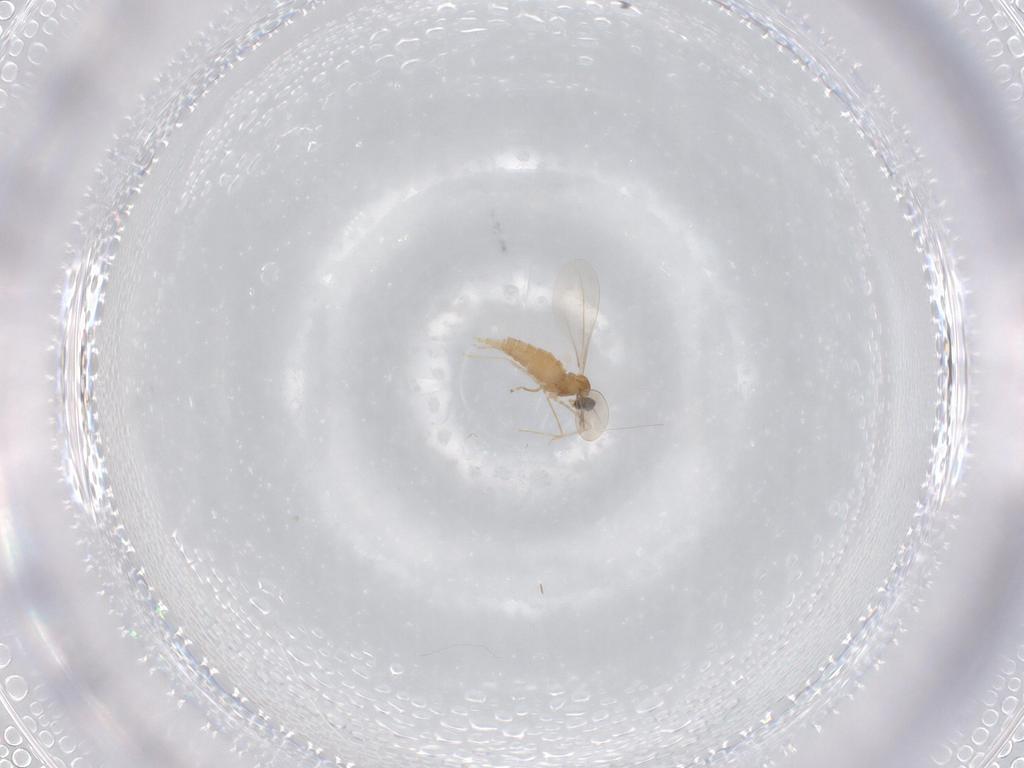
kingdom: Animalia
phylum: Arthropoda
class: Insecta
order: Diptera
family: Cecidomyiidae
